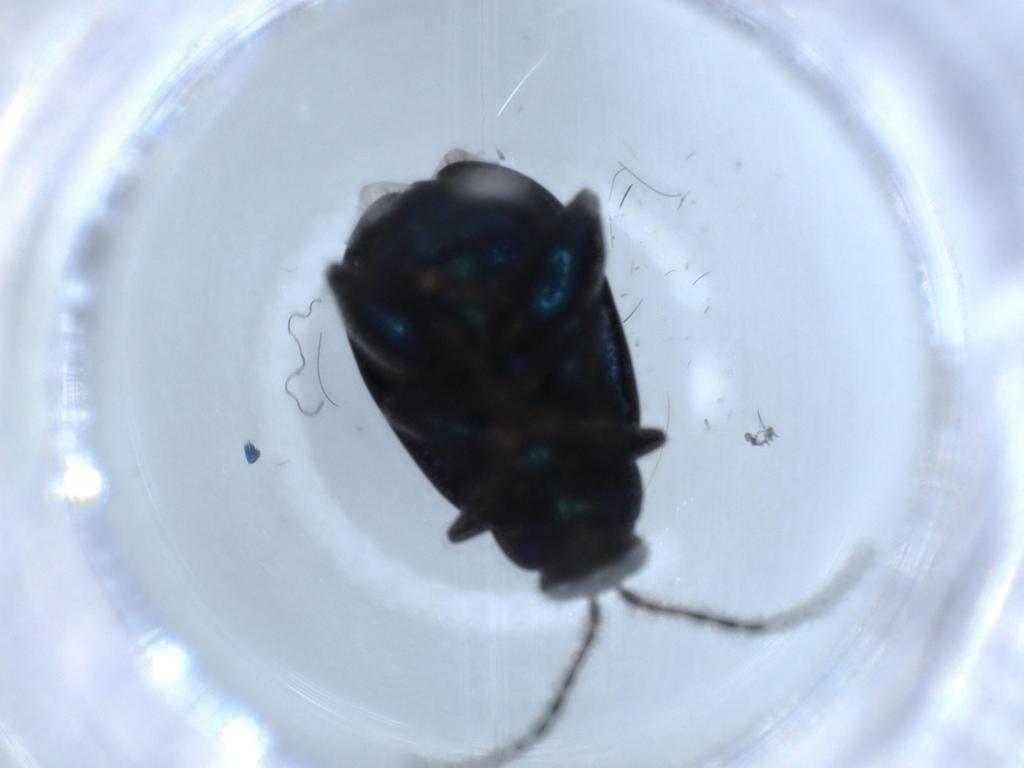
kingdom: Animalia
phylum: Arthropoda
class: Insecta
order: Coleoptera
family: Chrysomelidae
